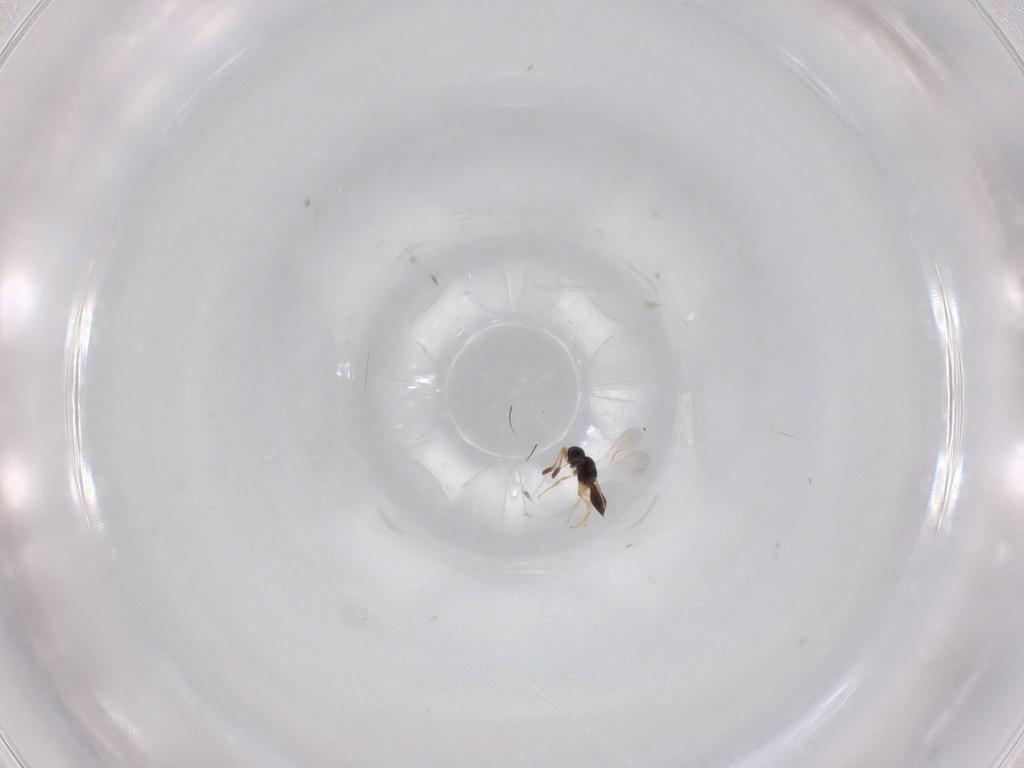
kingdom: Animalia
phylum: Arthropoda
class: Insecta
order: Hymenoptera
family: Scelionidae
